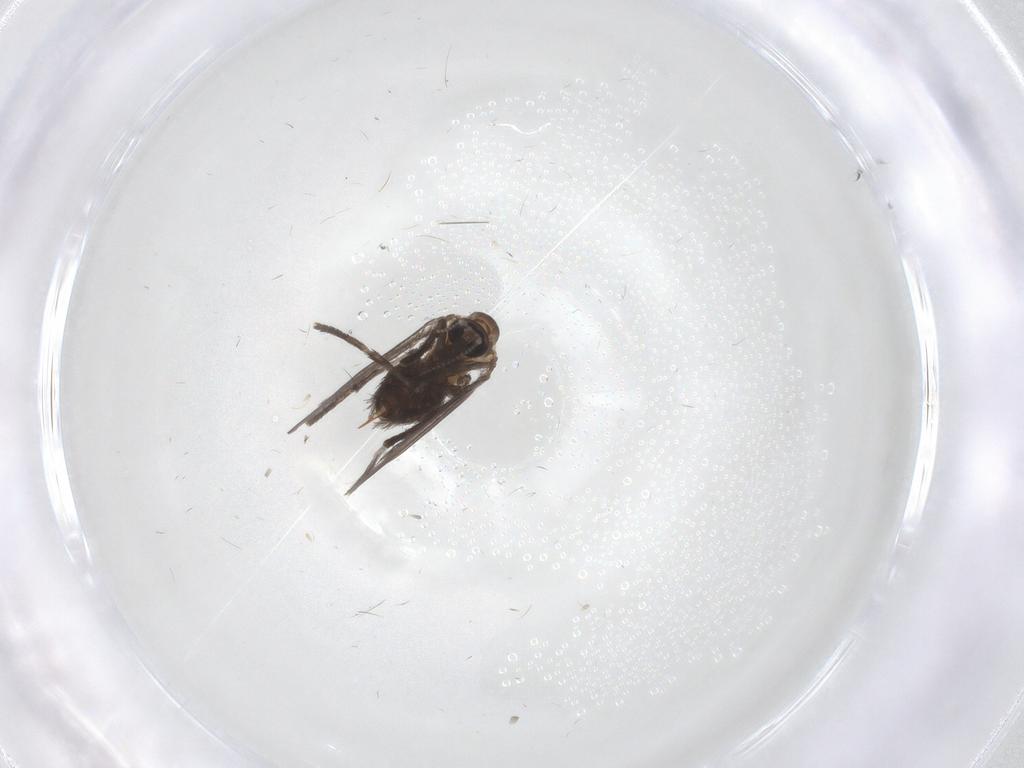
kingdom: Animalia
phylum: Arthropoda
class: Insecta
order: Diptera
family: Psychodidae
